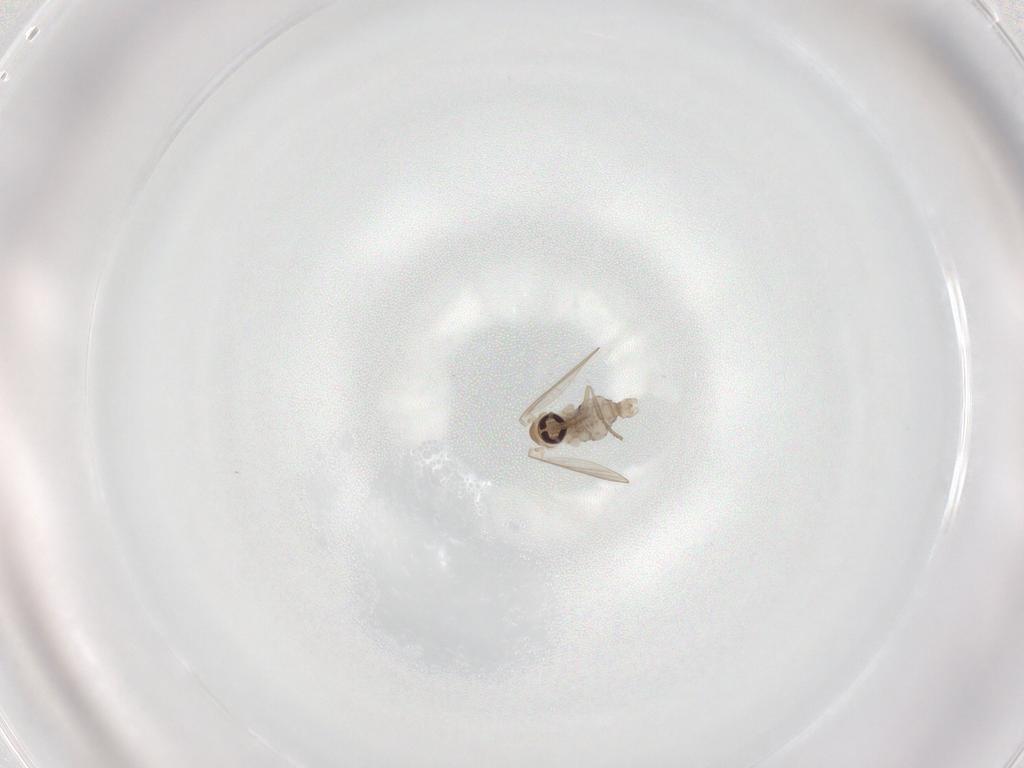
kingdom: Animalia
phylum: Arthropoda
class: Insecta
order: Diptera
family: Psychodidae
